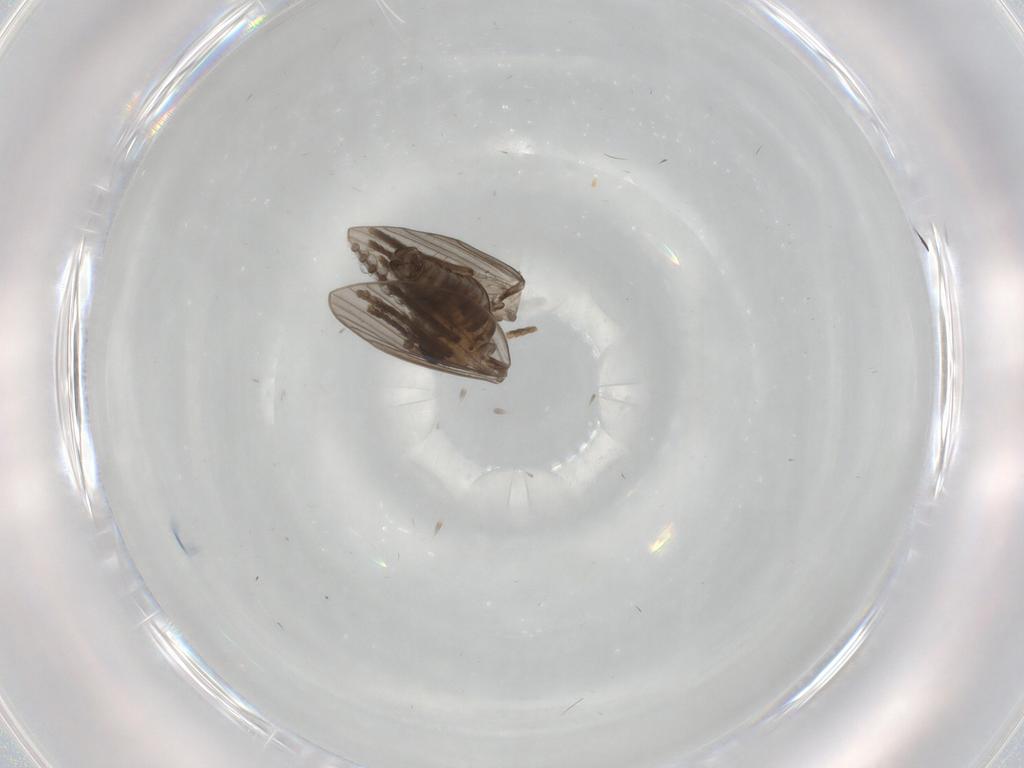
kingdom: Animalia
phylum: Arthropoda
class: Insecta
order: Diptera
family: Psychodidae
